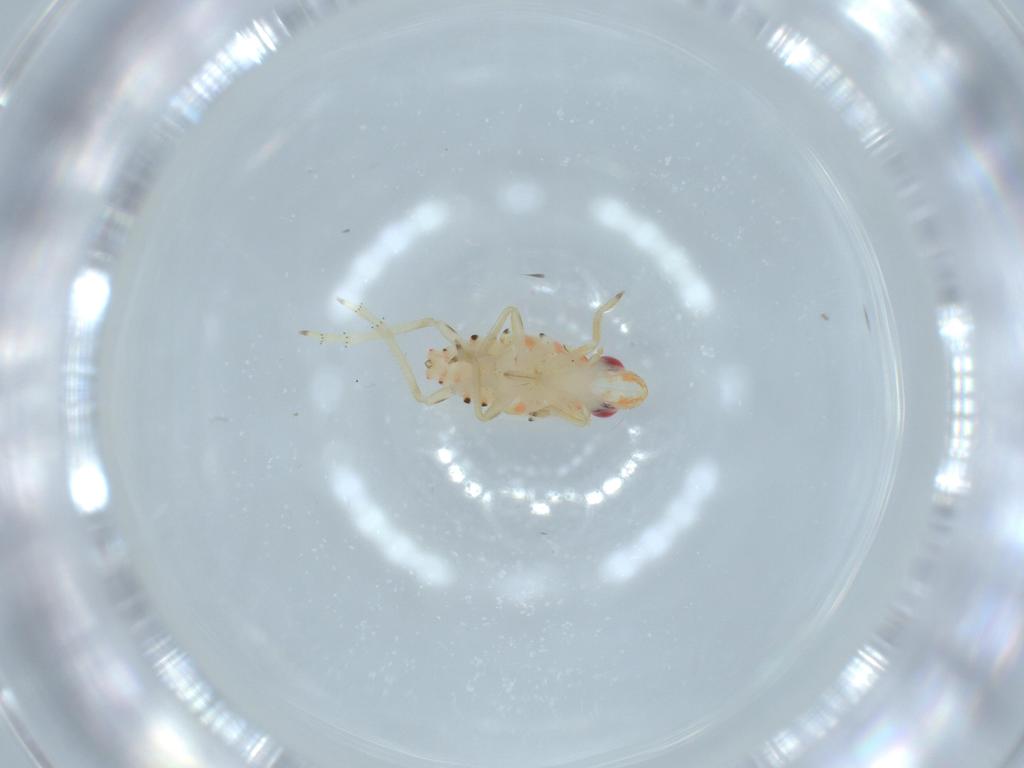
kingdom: Animalia
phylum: Arthropoda
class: Insecta
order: Hemiptera
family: Tropiduchidae
